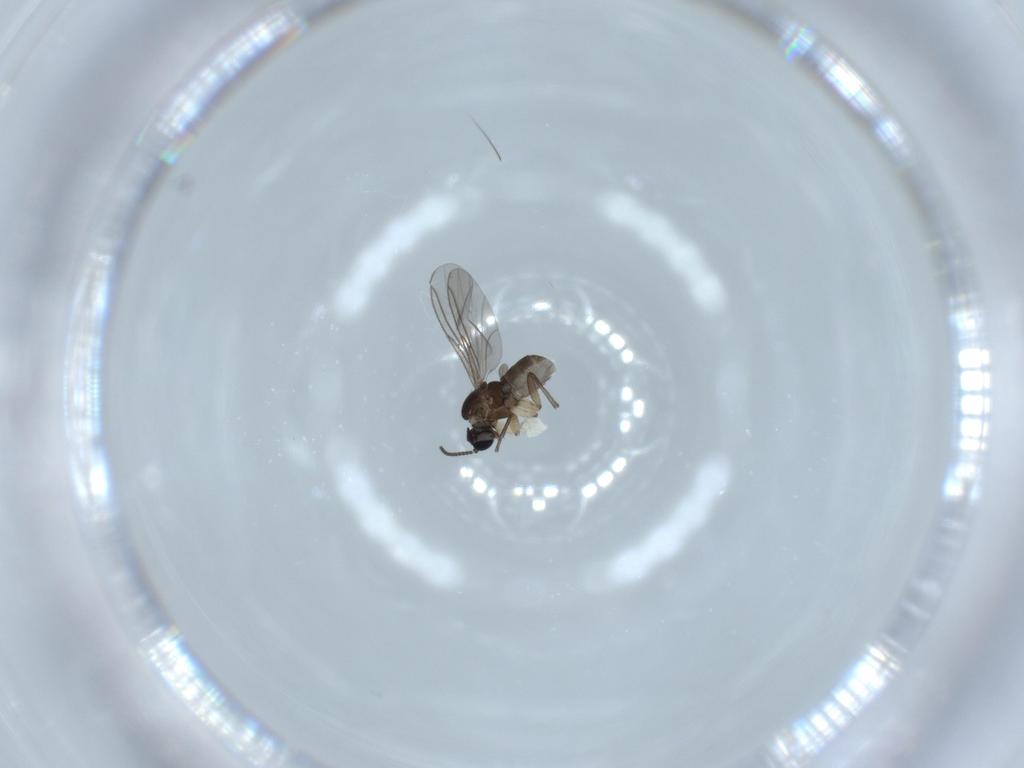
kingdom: Animalia
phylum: Arthropoda
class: Insecta
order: Diptera
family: Sciaridae
